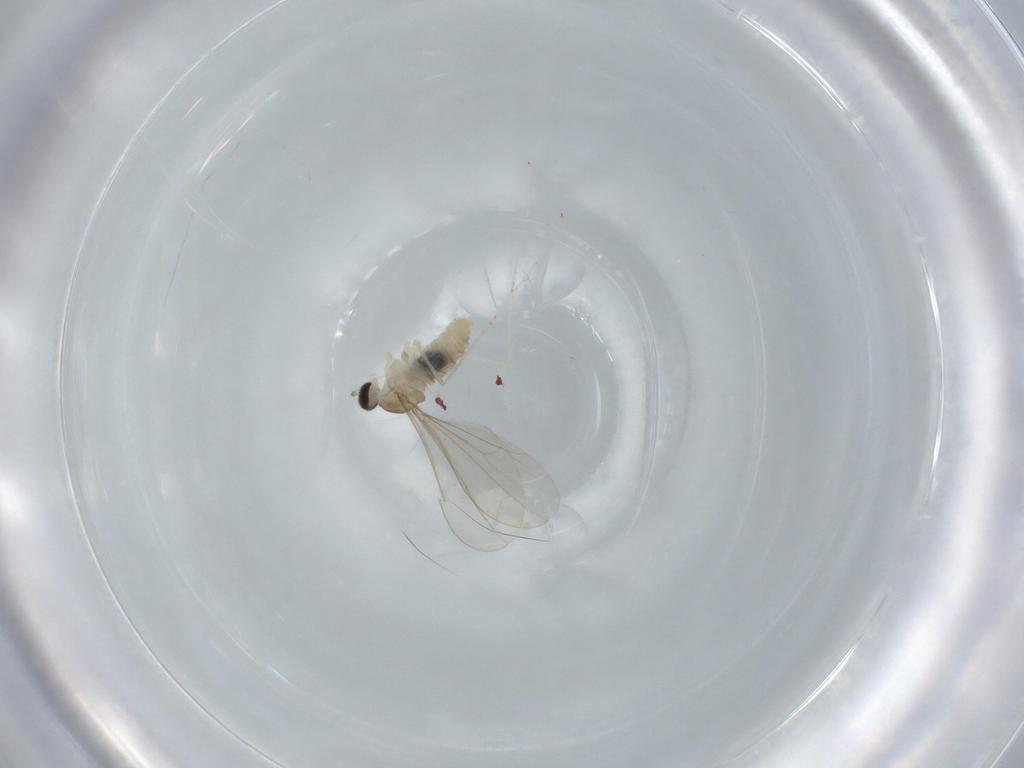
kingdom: Animalia
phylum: Arthropoda
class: Insecta
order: Diptera
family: Cecidomyiidae
